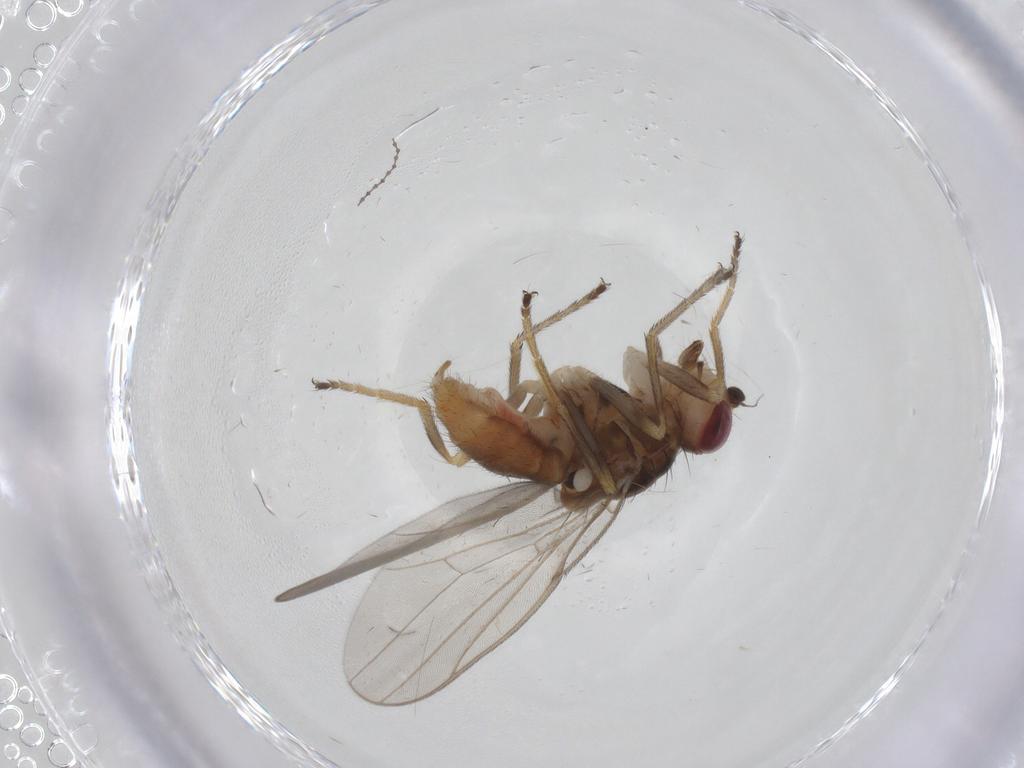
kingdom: Animalia
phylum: Arthropoda
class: Insecta
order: Diptera
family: Chloropidae
